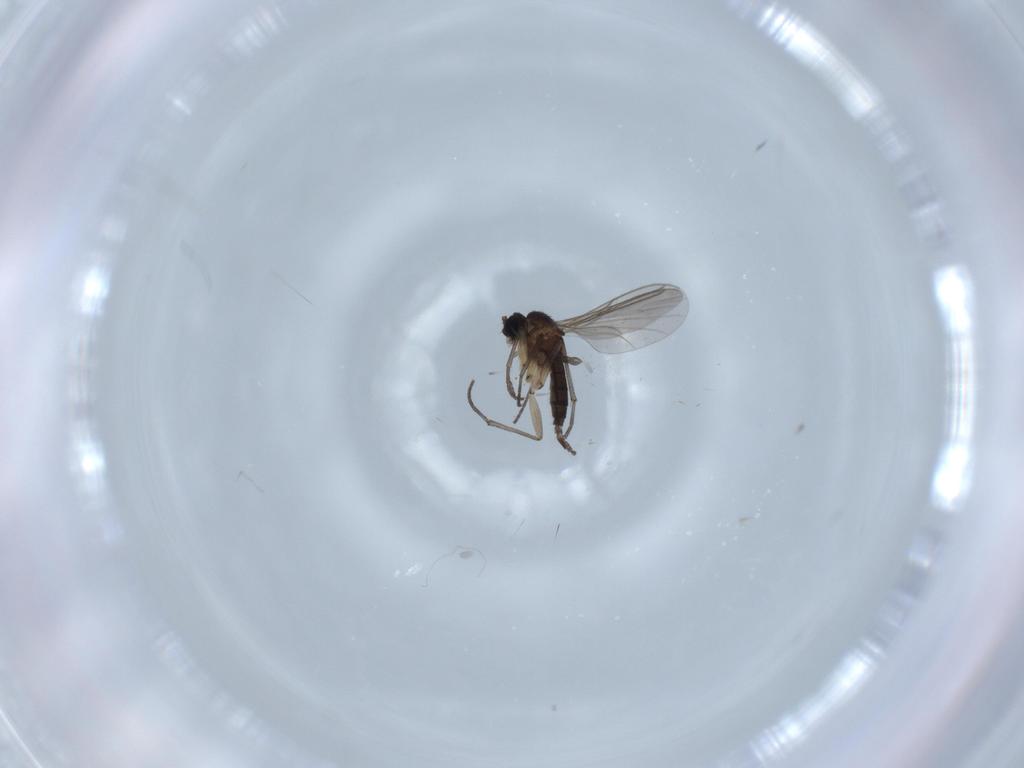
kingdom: Animalia
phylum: Arthropoda
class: Insecta
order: Diptera
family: Sciaridae
